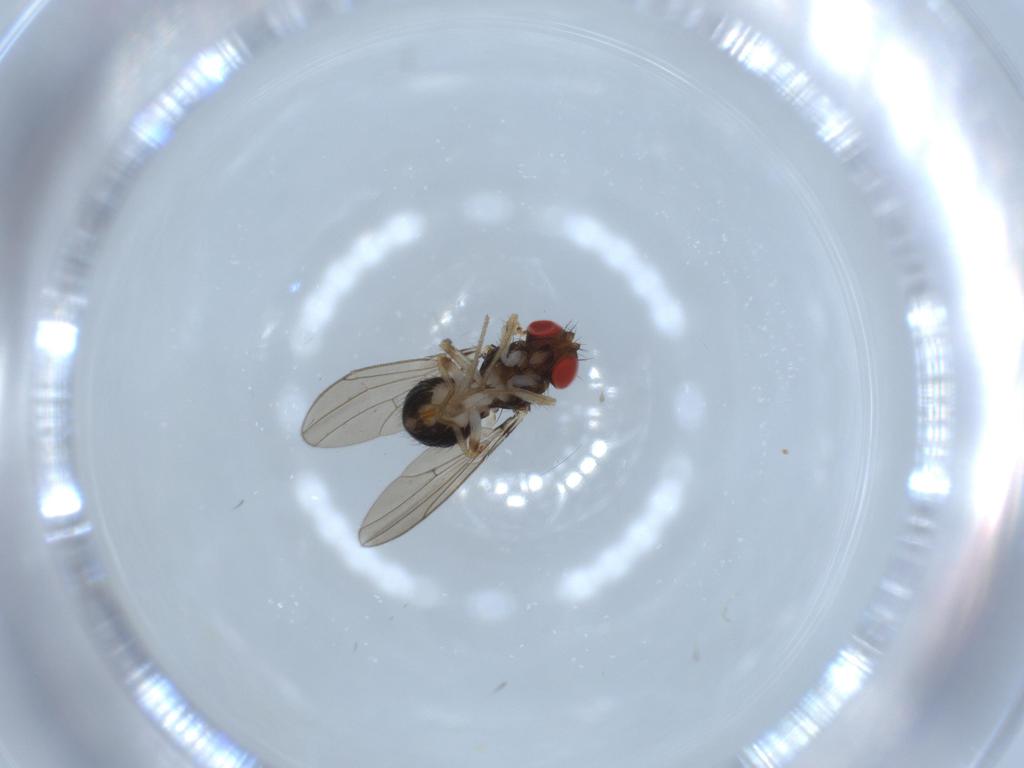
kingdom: Animalia
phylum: Arthropoda
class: Insecta
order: Diptera
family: Drosophilidae
